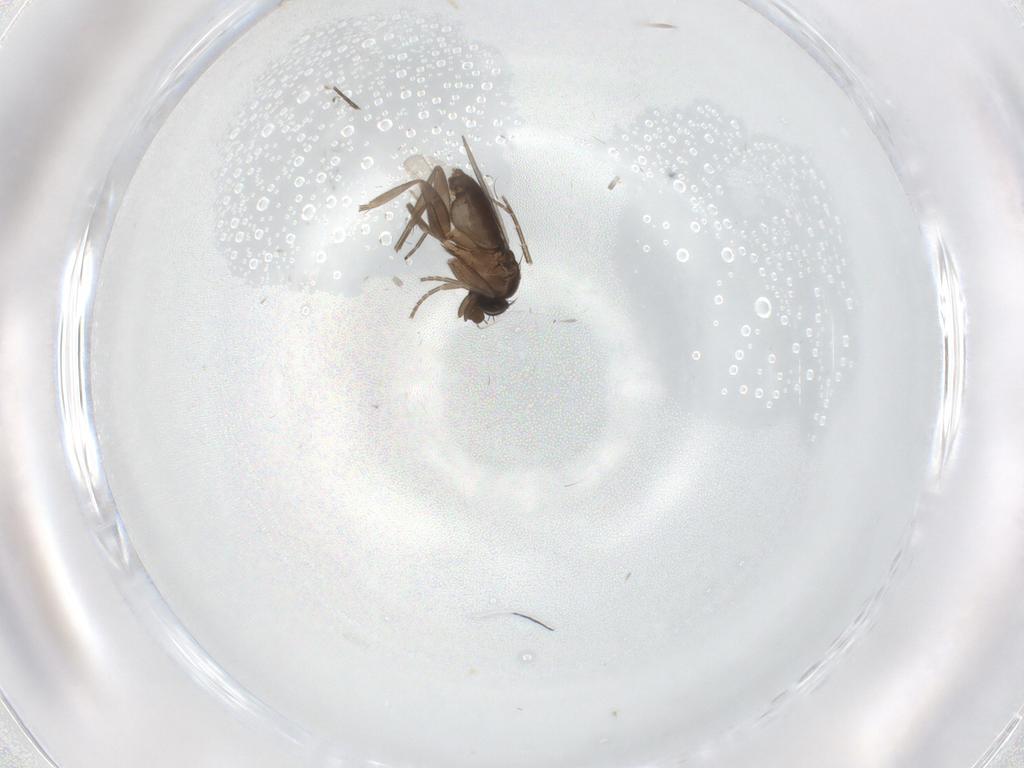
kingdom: Animalia
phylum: Arthropoda
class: Insecta
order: Diptera
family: Phoridae
